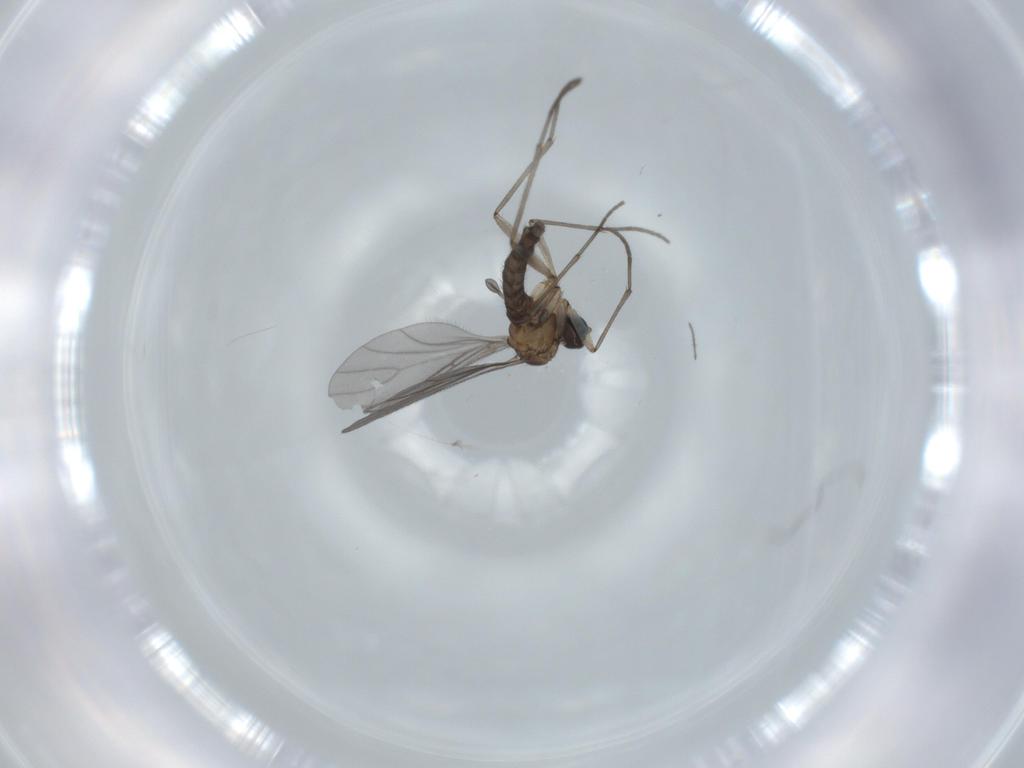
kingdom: Animalia
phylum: Arthropoda
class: Insecta
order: Diptera
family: Sciaridae
